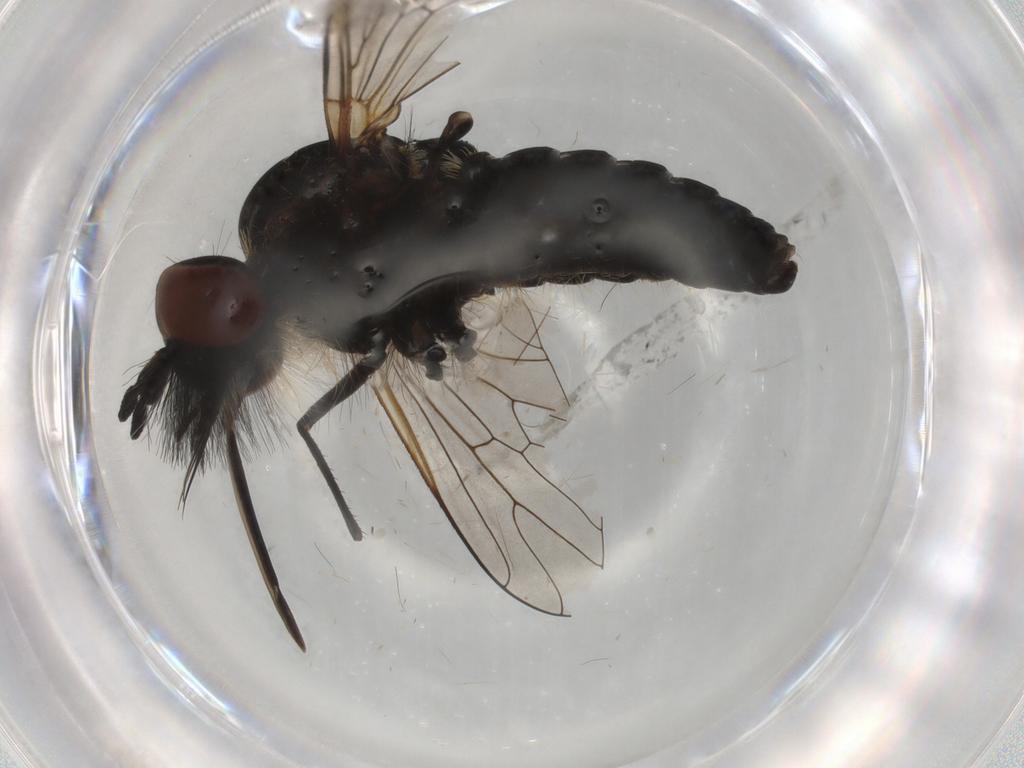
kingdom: Animalia
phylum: Arthropoda
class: Insecta
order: Diptera
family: Bombyliidae
